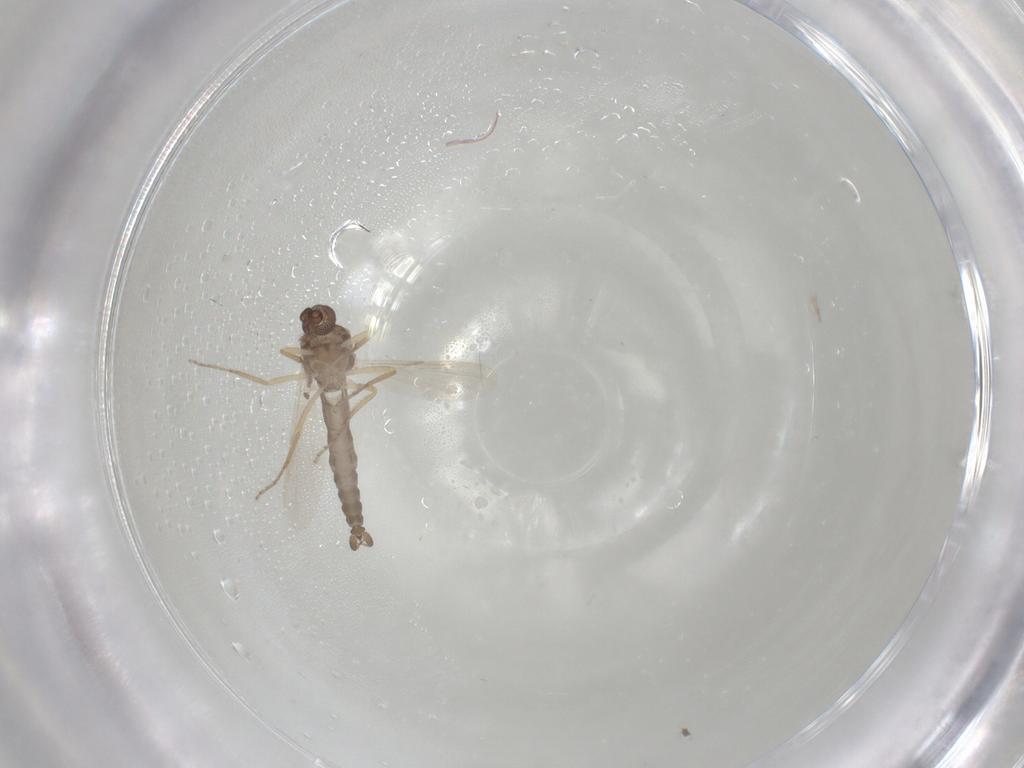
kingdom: Animalia
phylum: Arthropoda
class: Insecta
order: Diptera
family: Ceratopogonidae
